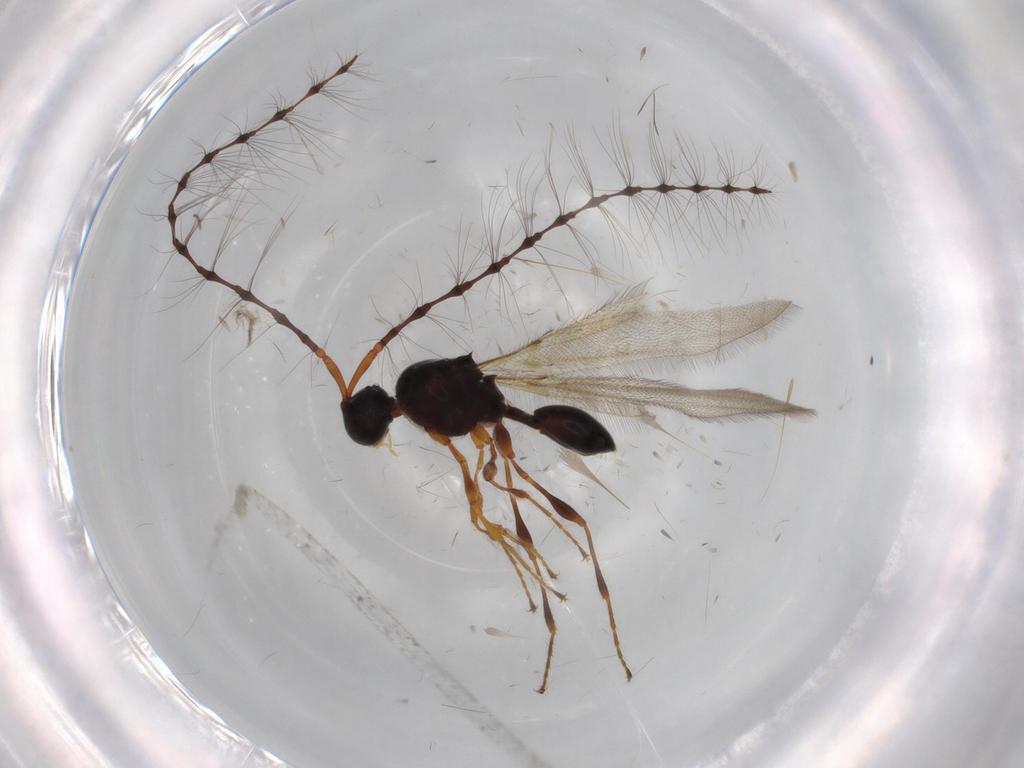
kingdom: Animalia
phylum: Arthropoda
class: Insecta
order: Hymenoptera
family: Diapriidae
